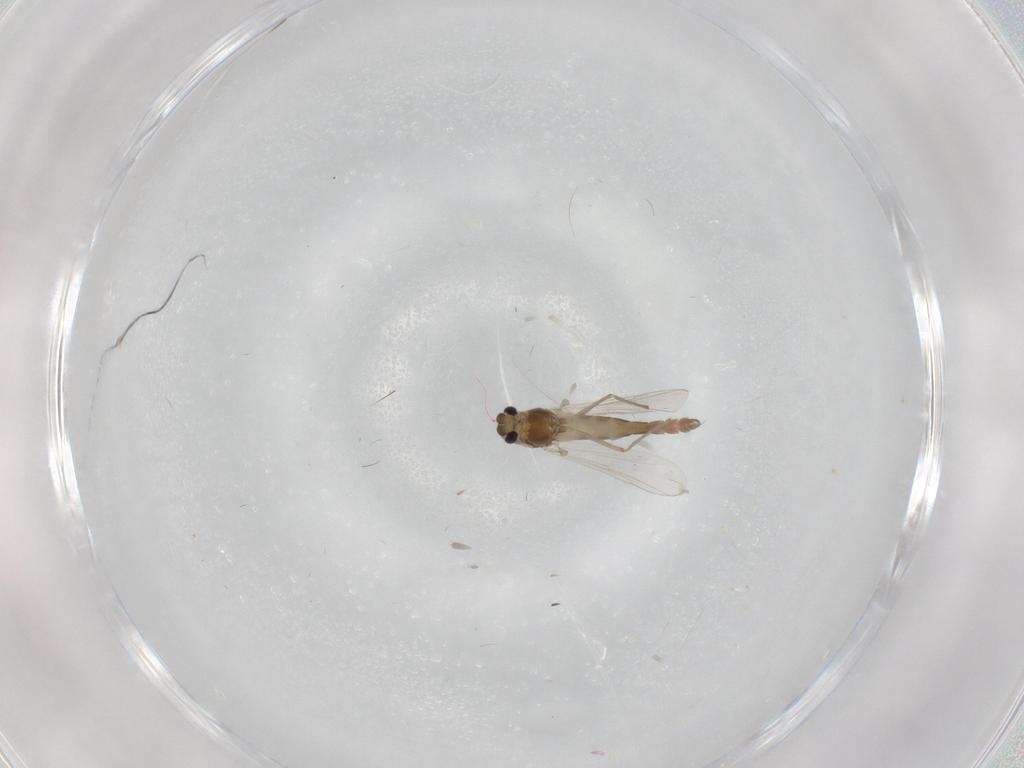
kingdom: Animalia
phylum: Arthropoda
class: Insecta
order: Diptera
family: Chironomidae
